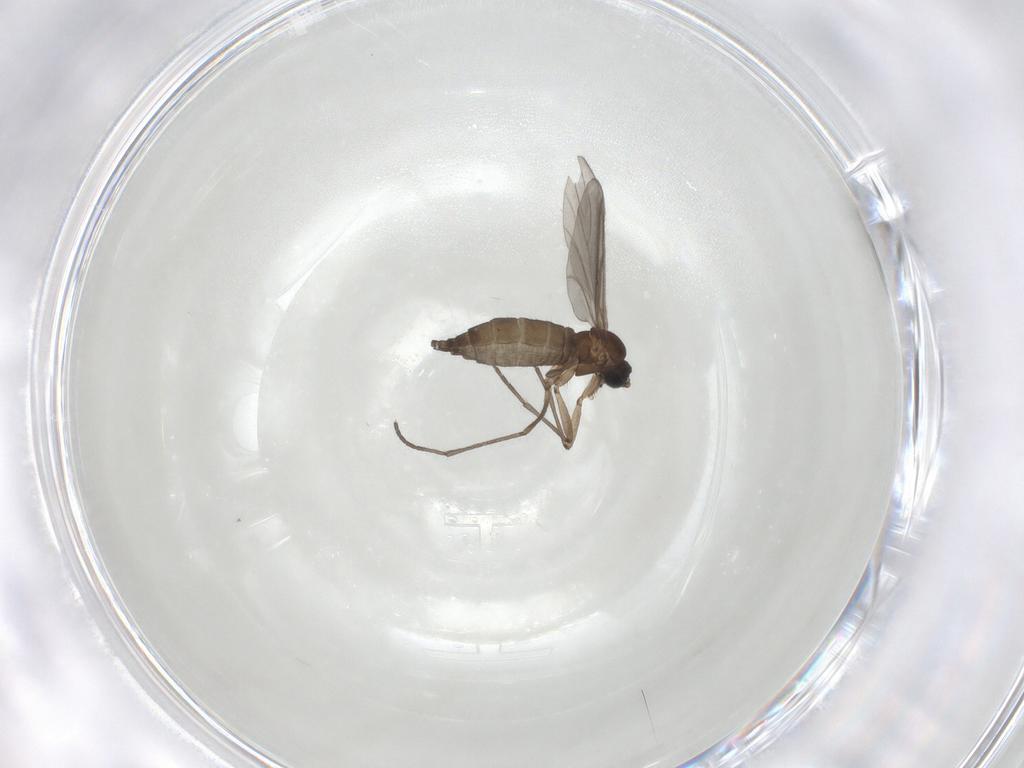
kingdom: Animalia
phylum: Arthropoda
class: Insecta
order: Diptera
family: Sciaridae
